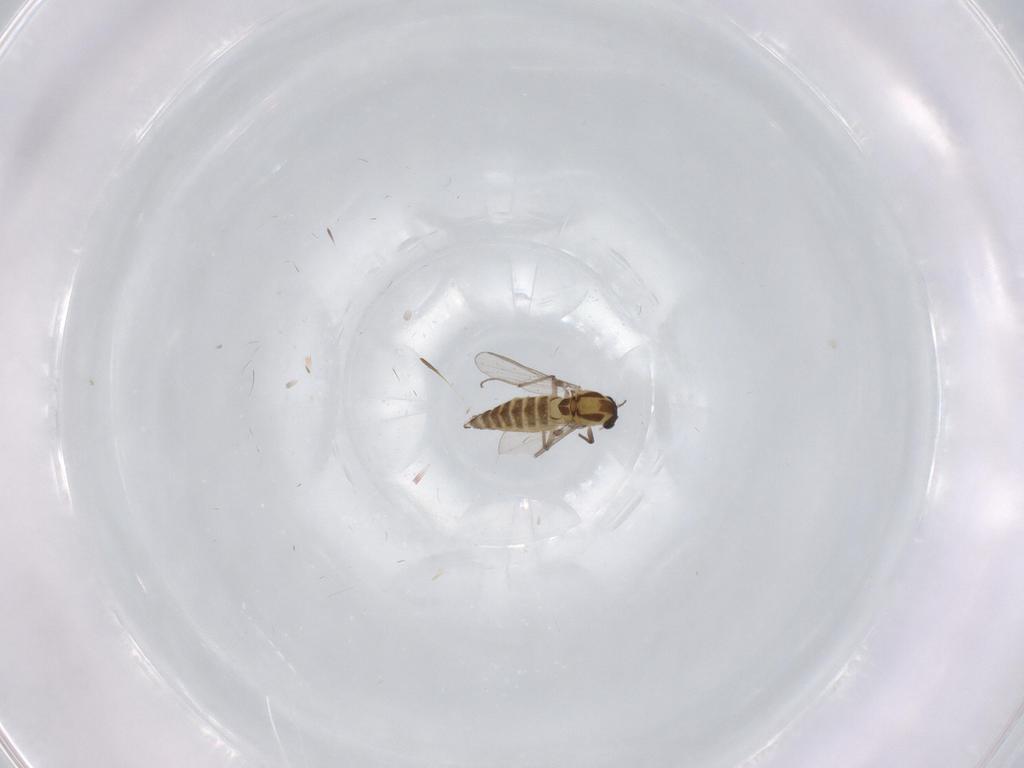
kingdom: Animalia
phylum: Arthropoda
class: Insecta
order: Diptera
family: Chironomidae
